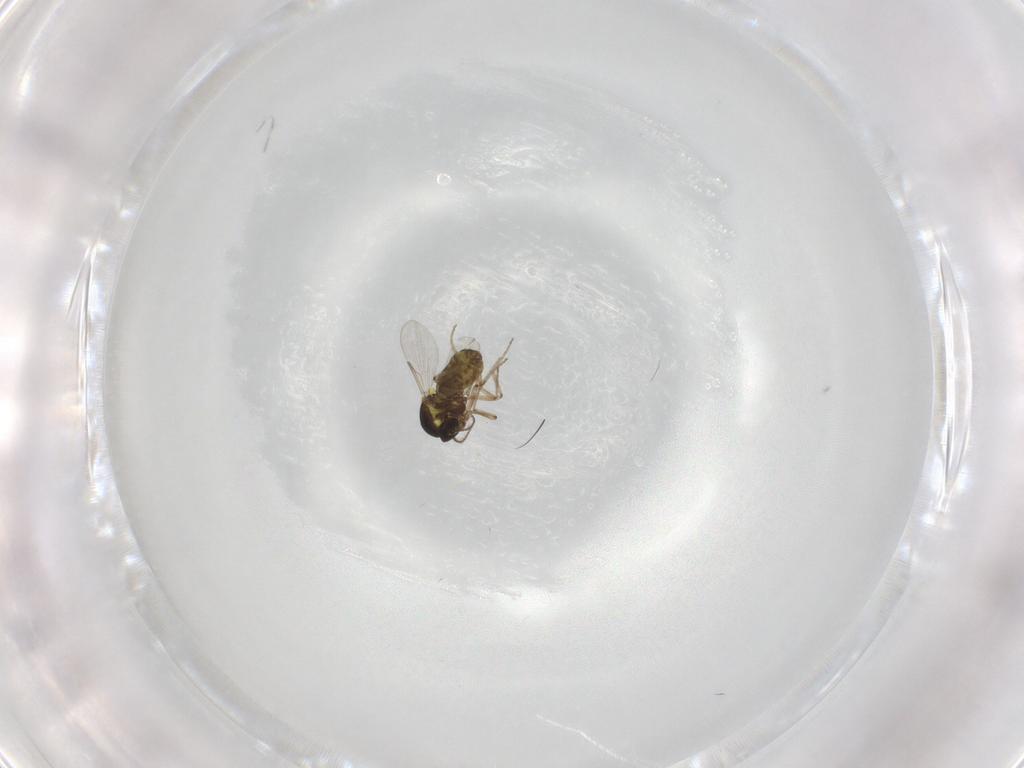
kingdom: Animalia
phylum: Arthropoda
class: Insecta
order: Diptera
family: Ceratopogonidae
